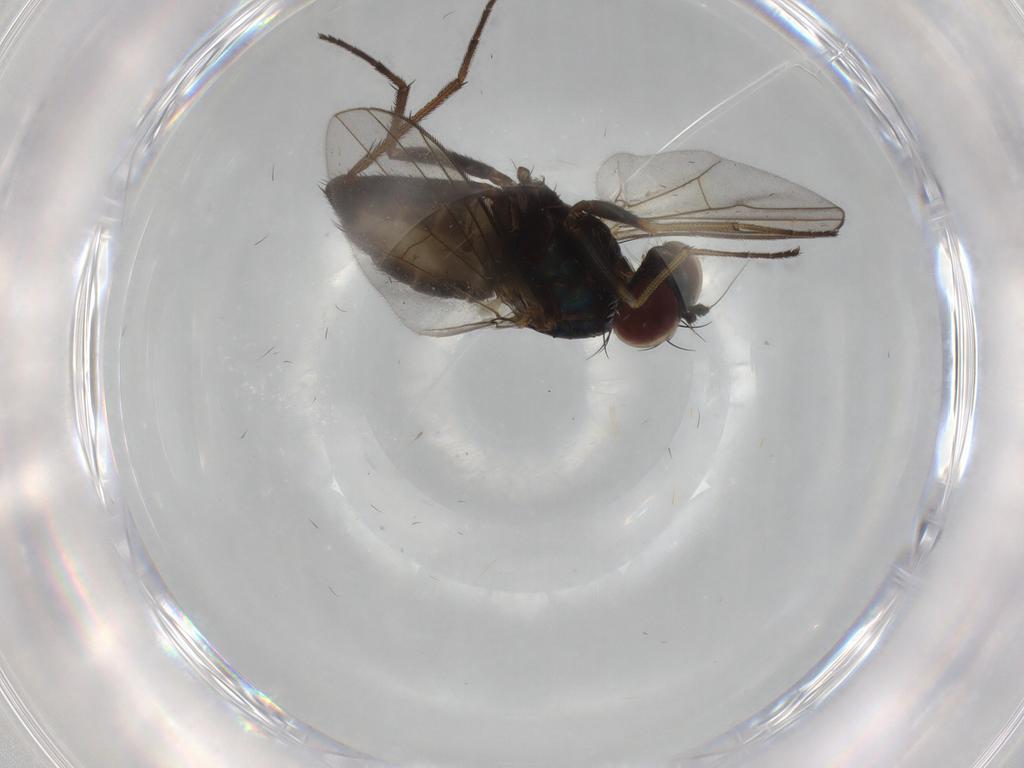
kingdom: Animalia
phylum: Arthropoda
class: Insecta
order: Diptera
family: Dolichopodidae
